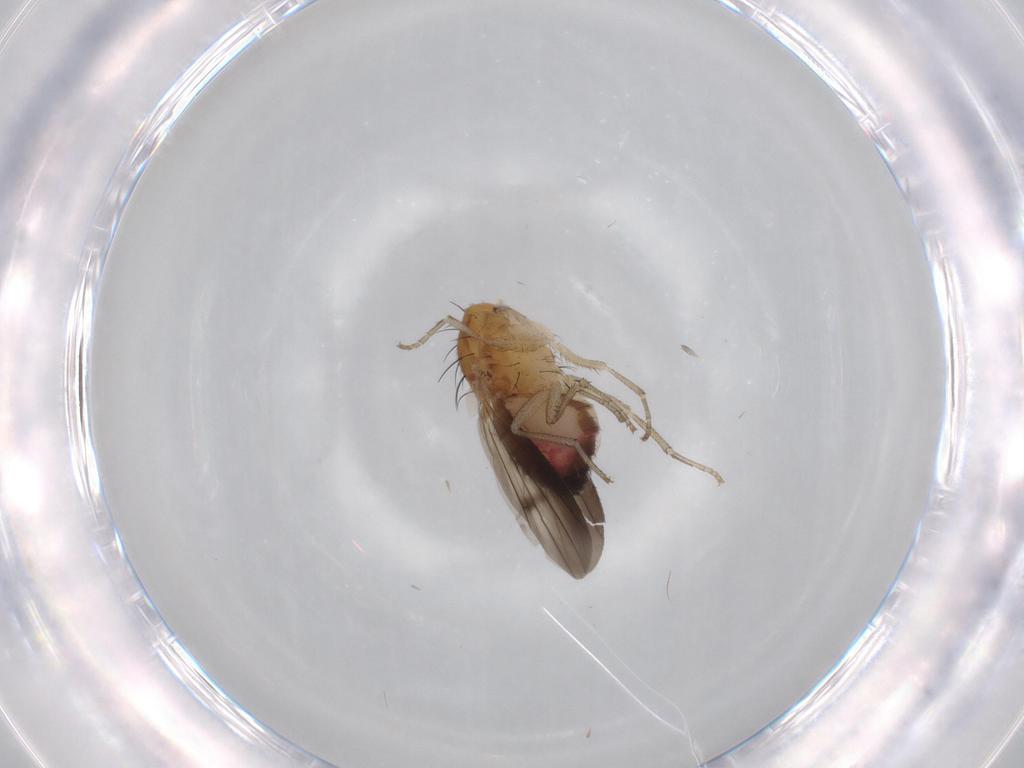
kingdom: Animalia
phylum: Arthropoda
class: Insecta
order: Diptera
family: Heleomyzidae
